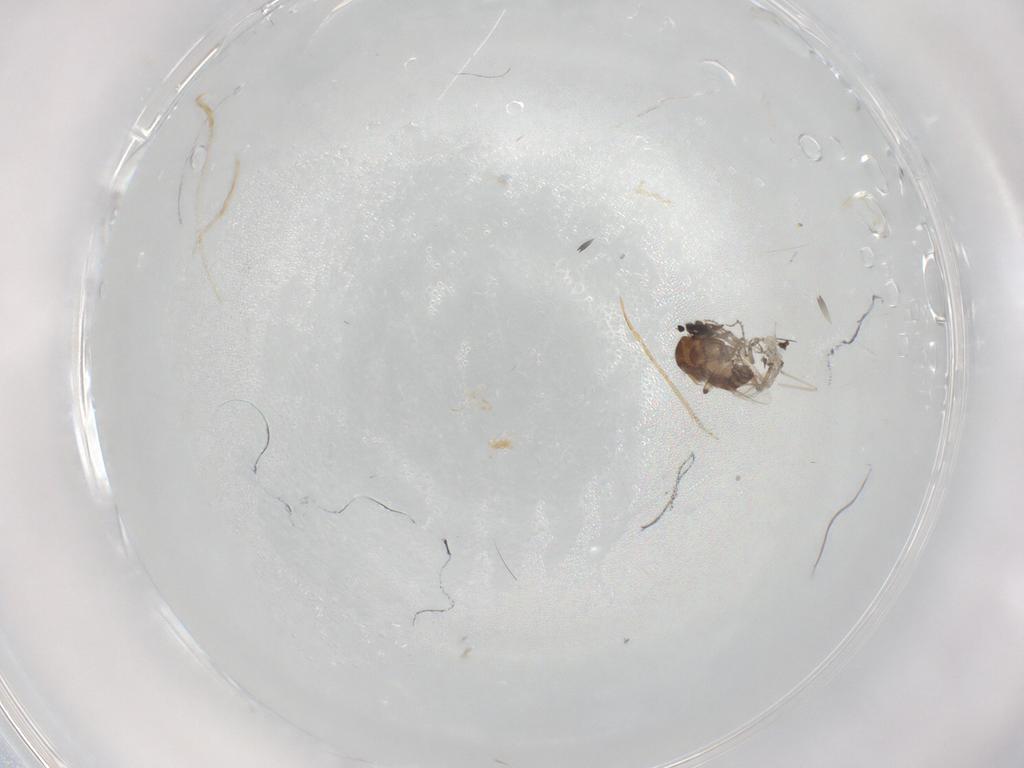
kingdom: Animalia
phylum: Arthropoda
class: Insecta
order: Diptera
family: Ceratopogonidae
